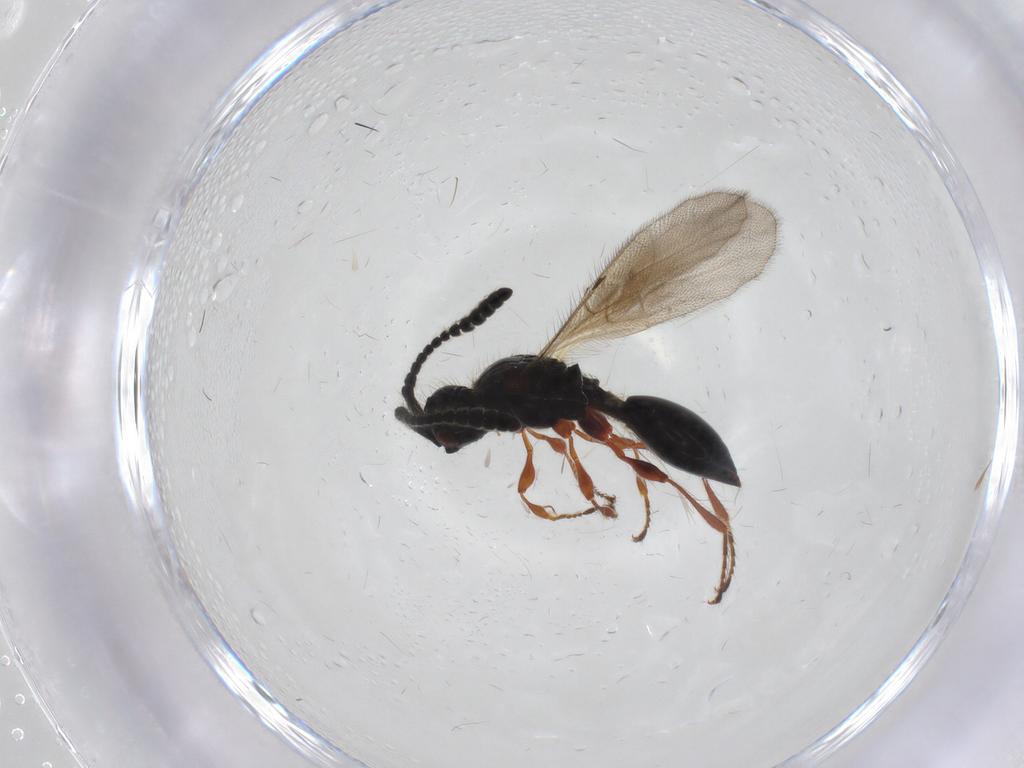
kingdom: Animalia
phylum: Arthropoda
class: Insecta
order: Hymenoptera
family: Diapriidae
